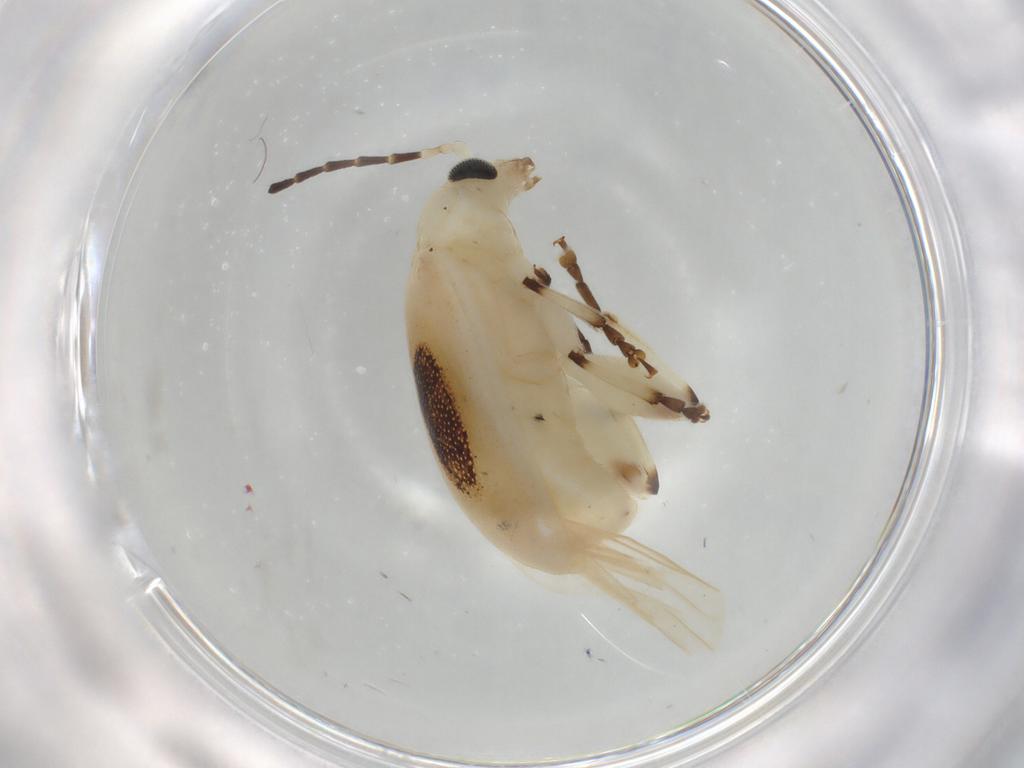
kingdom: Animalia
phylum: Arthropoda
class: Insecta
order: Coleoptera
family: Chrysomelidae
